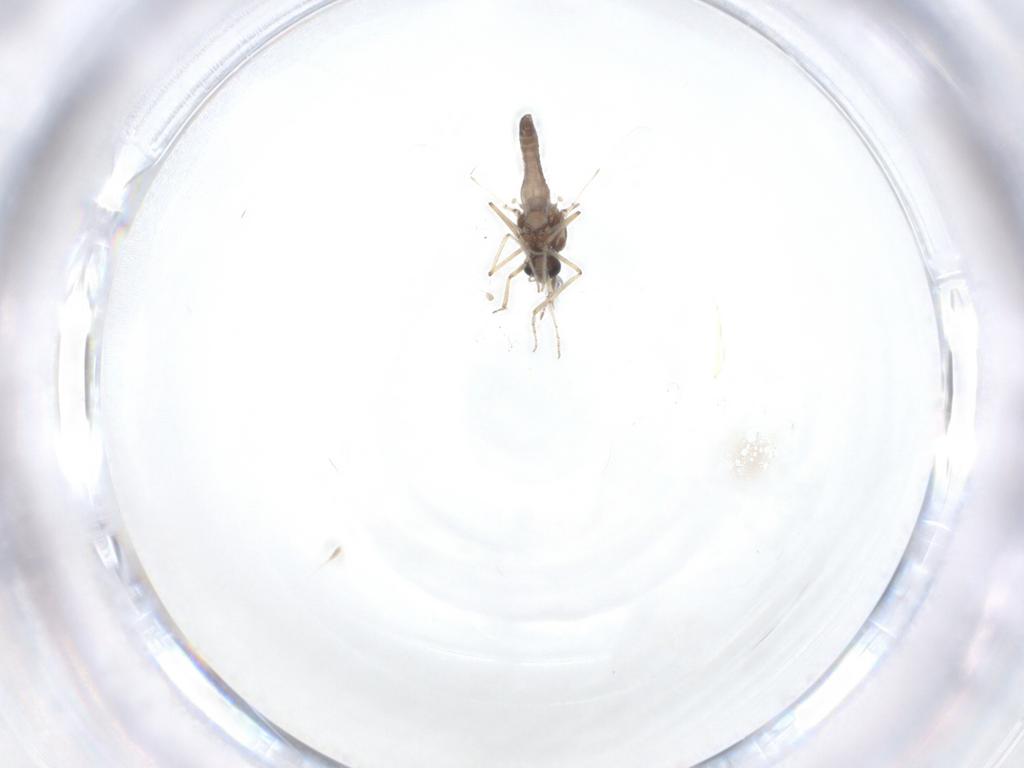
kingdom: Animalia
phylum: Arthropoda
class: Insecta
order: Diptera
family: Ceratopogonidae
